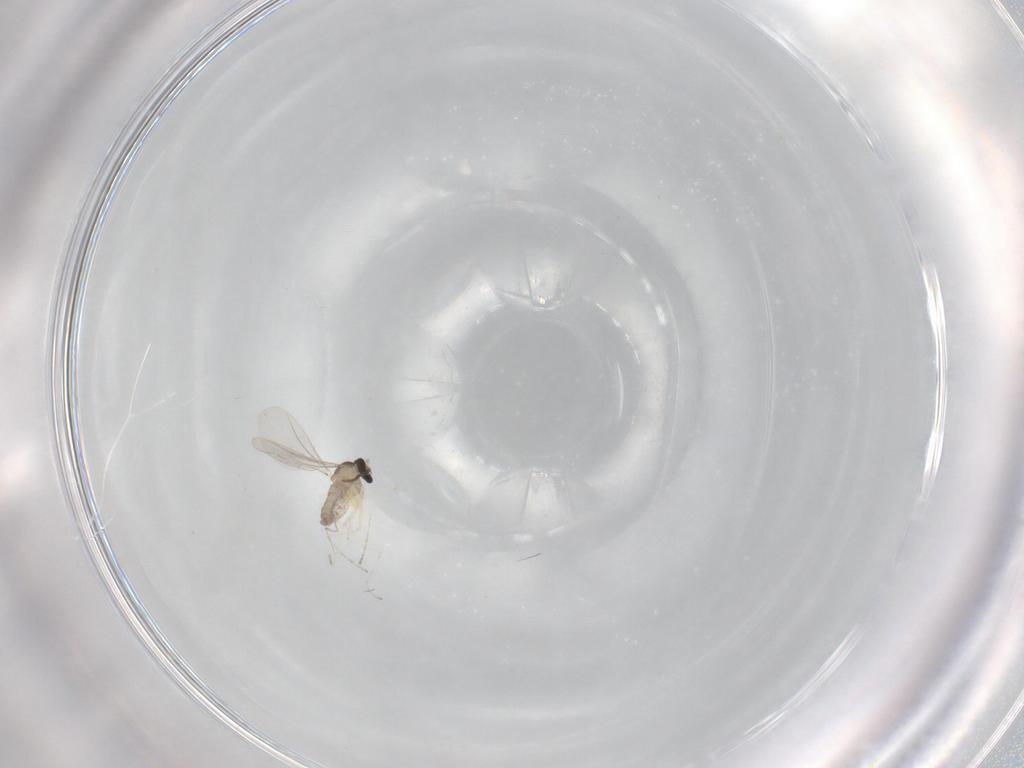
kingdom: Animalia
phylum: Arthropoda
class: Insecta
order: Diptera
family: Cecidomyiidae
